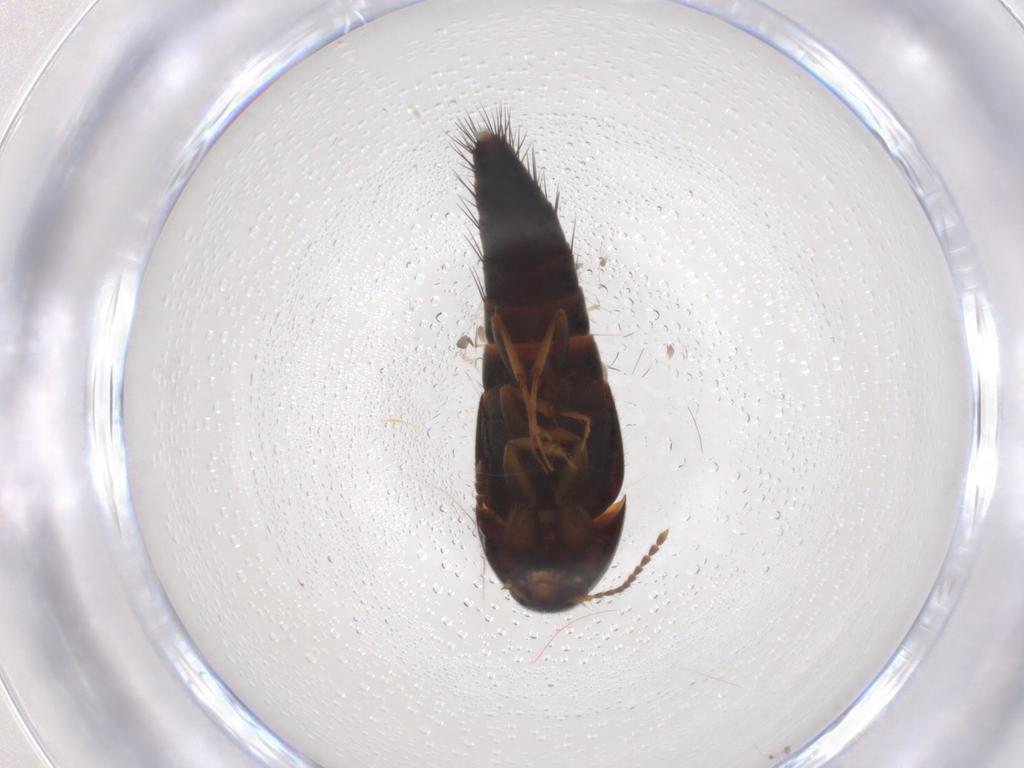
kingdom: Animalia
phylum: Arthropoda
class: Insecta
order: Coleoptera
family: Staphylinidae
